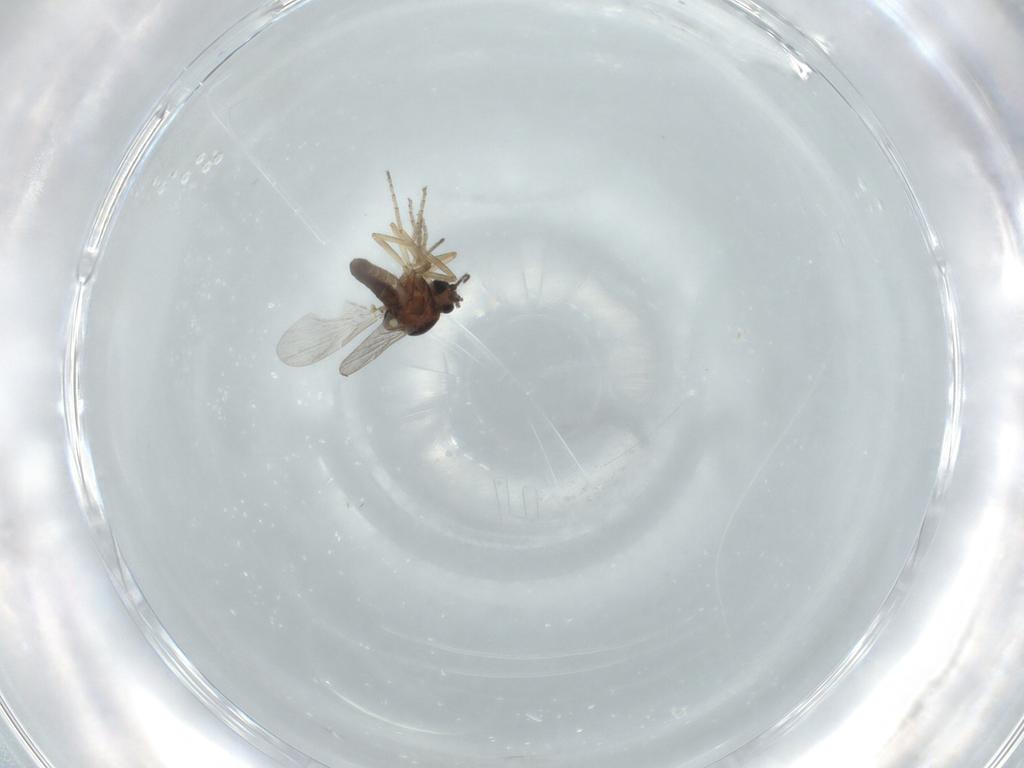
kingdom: Animalia
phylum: Arthropoda
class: Insecta
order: Diptera
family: Ceratopogonidae
